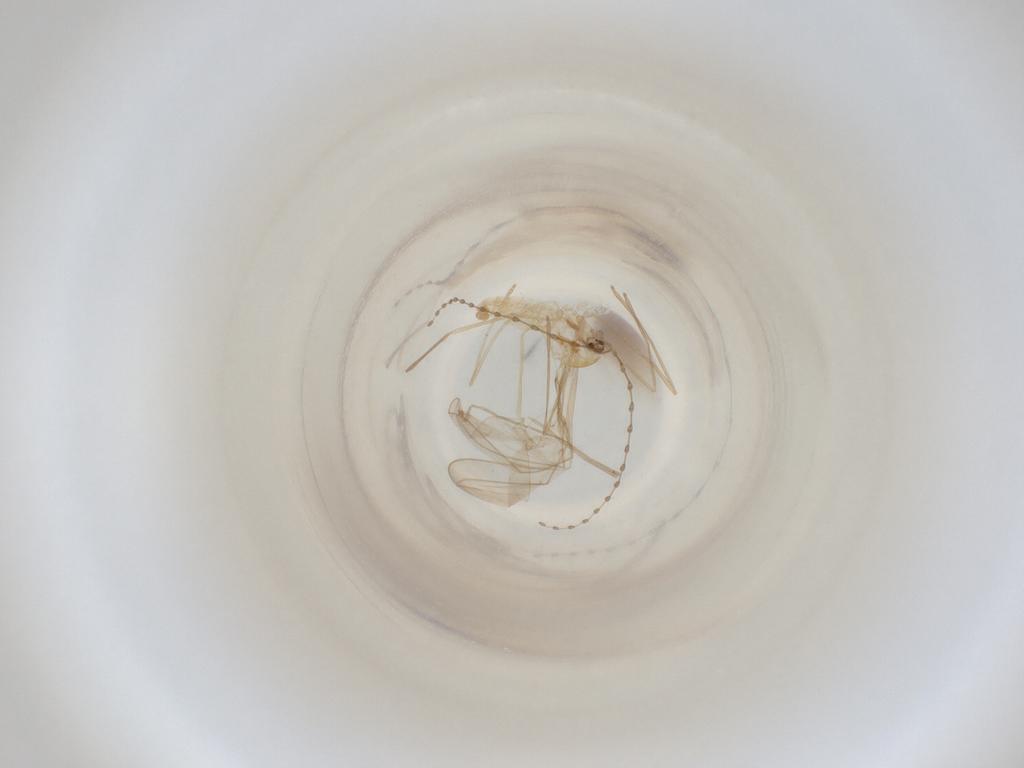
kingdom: Animalia
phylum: Arthropoda
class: Insecta
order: Diptera
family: Cecidomyiidae
